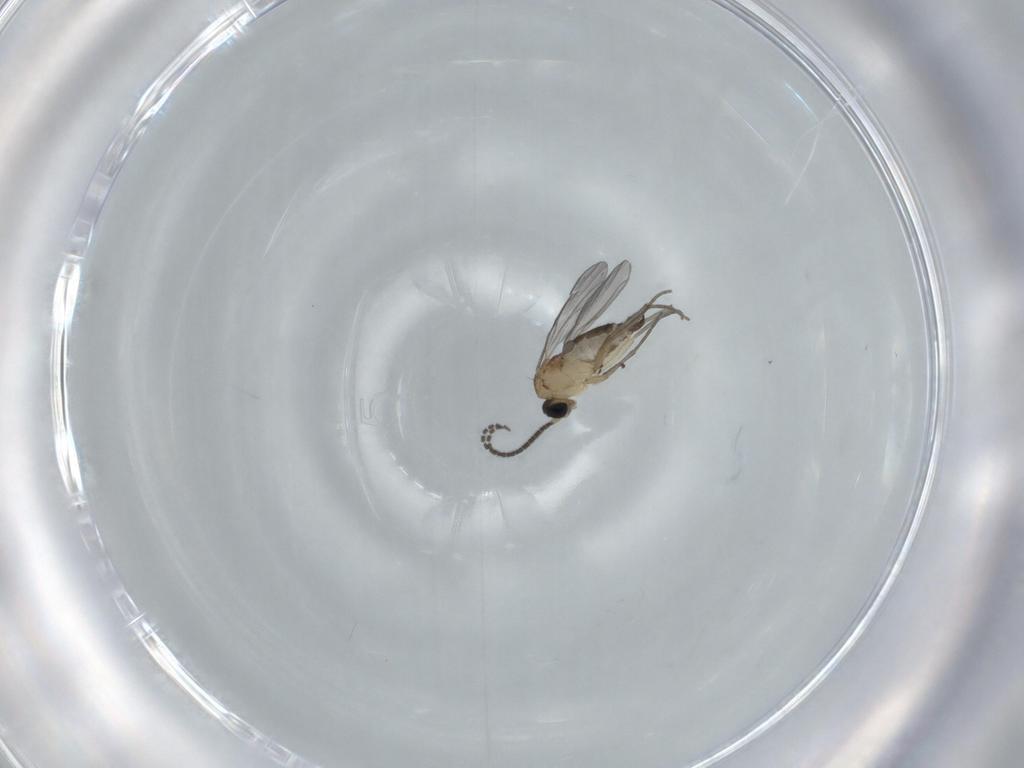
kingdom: Animalia
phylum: Arthropoda
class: Insecta
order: Diptera
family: Sciaridae
